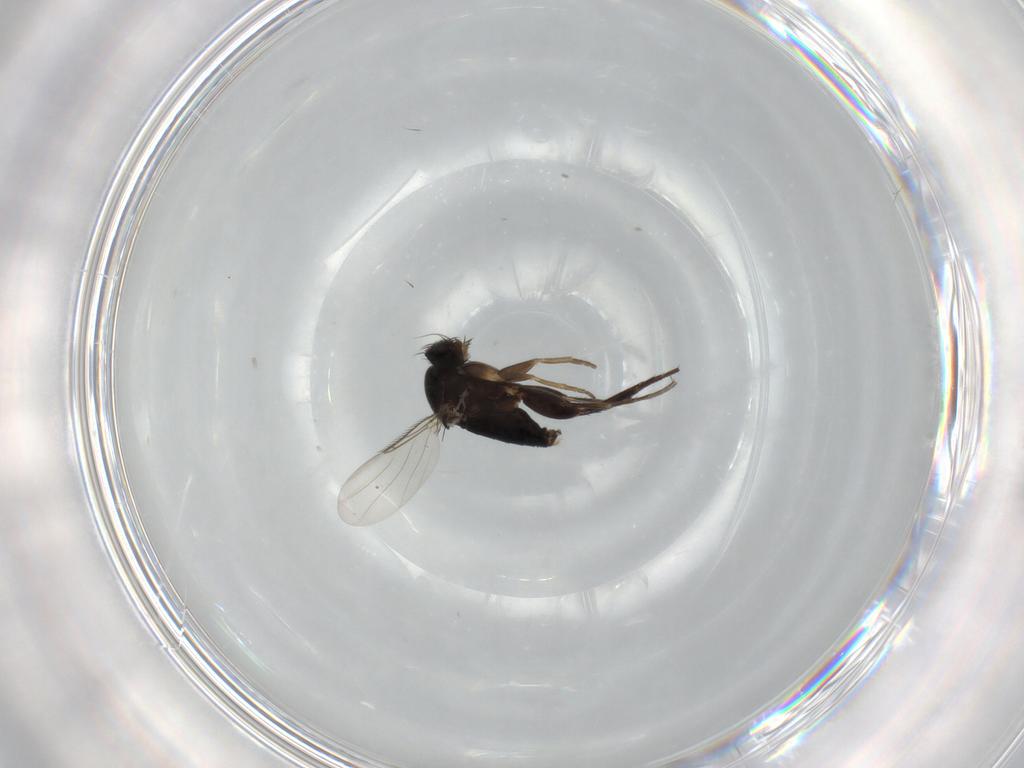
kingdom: Animalia
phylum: Arthropoda
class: Insecta
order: Diptera
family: Phoridae
